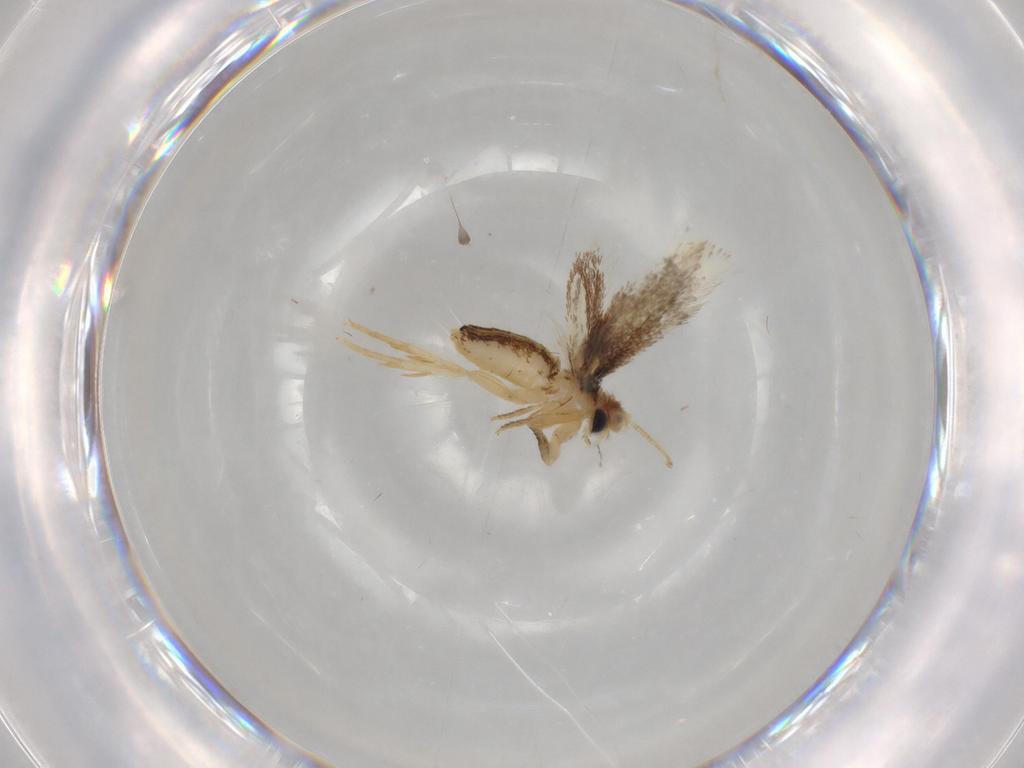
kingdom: Animalia
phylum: Arthropoda
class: Insecta
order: Lepidoptera
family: Nepticulidae
